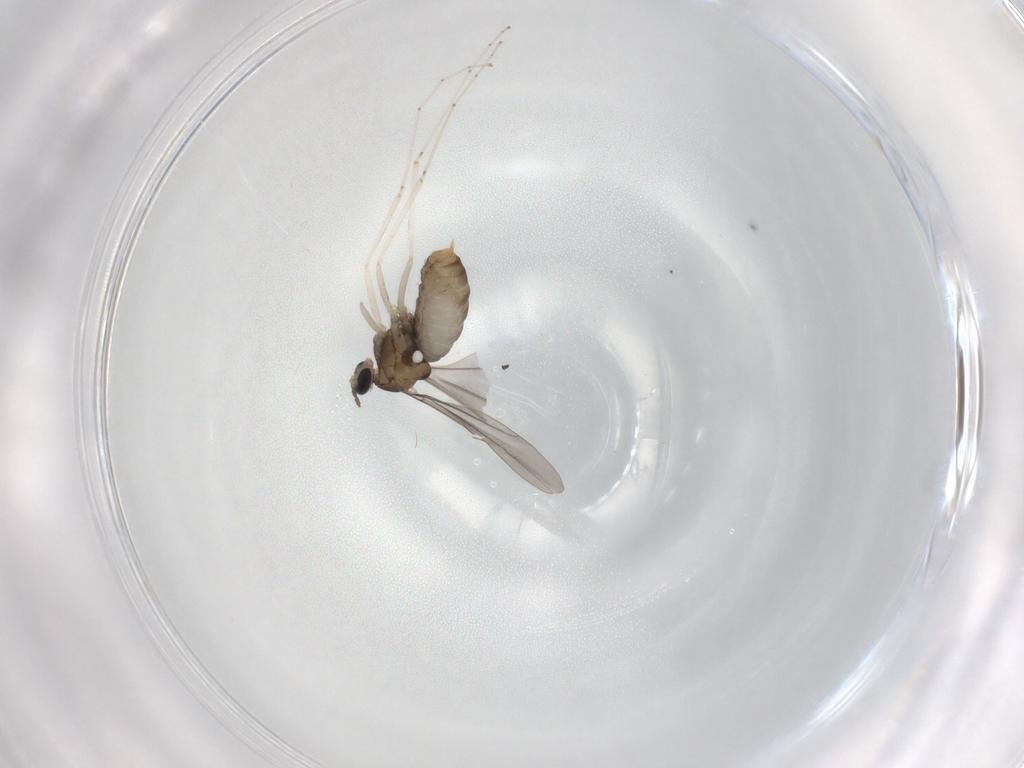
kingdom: Animalia
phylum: Arthropoda
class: Insecta
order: Diptera
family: Cecidomyiidae
